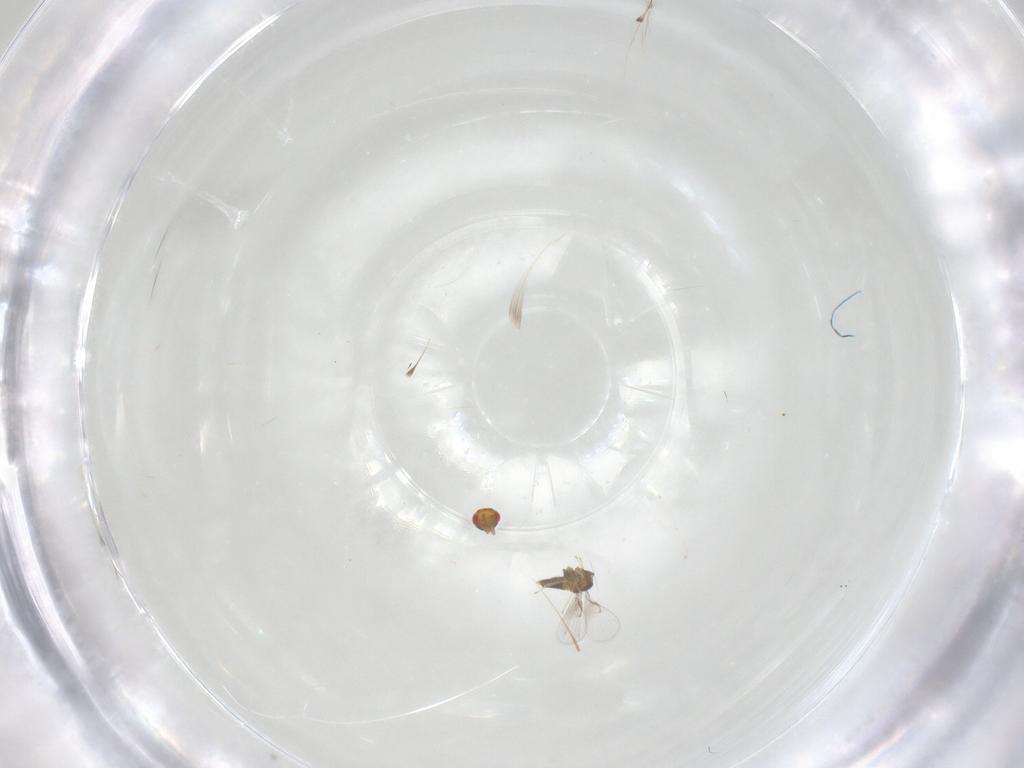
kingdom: Animalia
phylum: Arthropoda
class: Insecta
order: Hymenoptera
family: Trichogrammatidae
